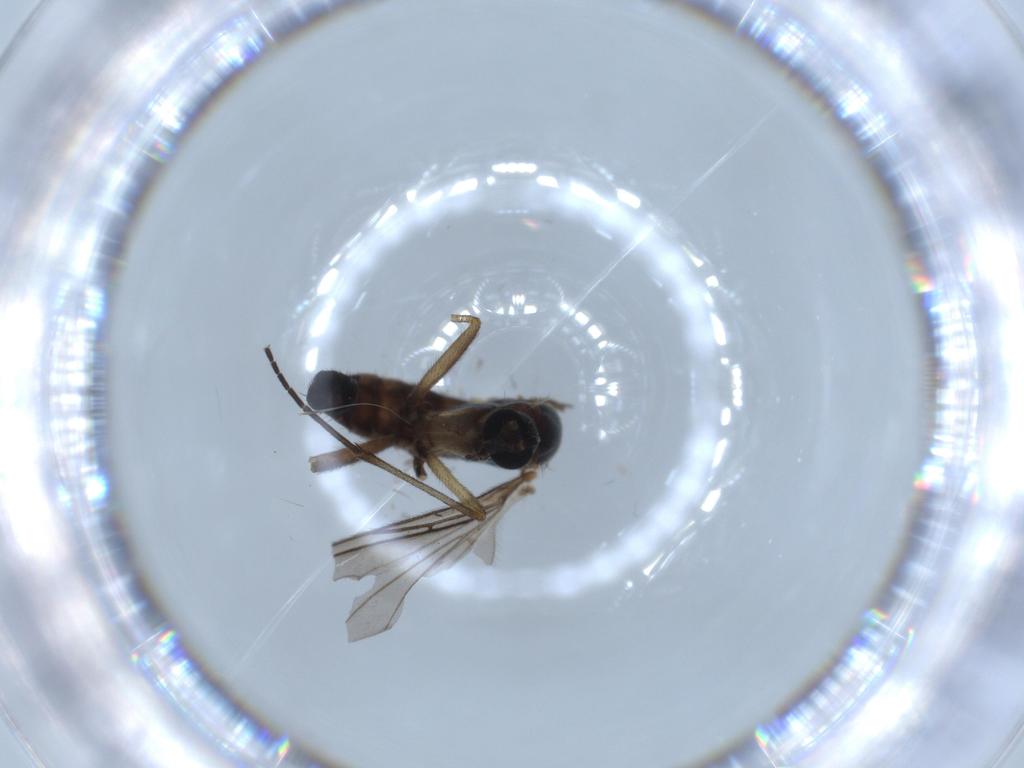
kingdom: Animalia
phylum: Arthropoda
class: Insecta
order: Diptera
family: Sciaridae
